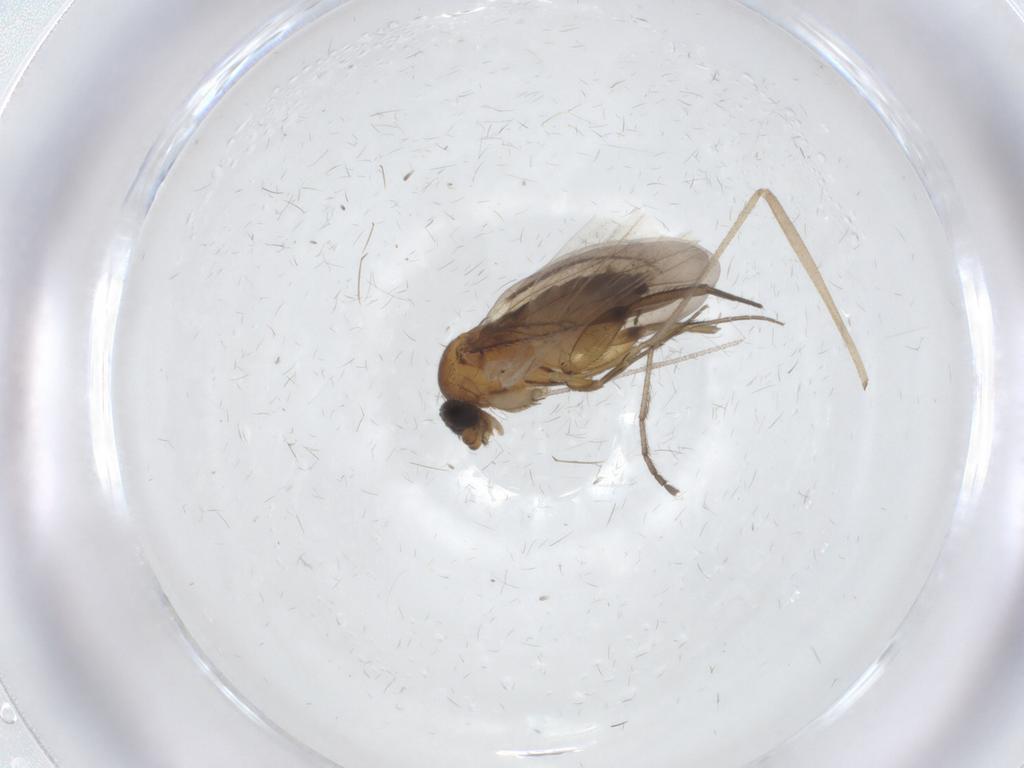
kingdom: Animalia
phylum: Arthropoda
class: Insecta
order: Diptera
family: Phoridae
